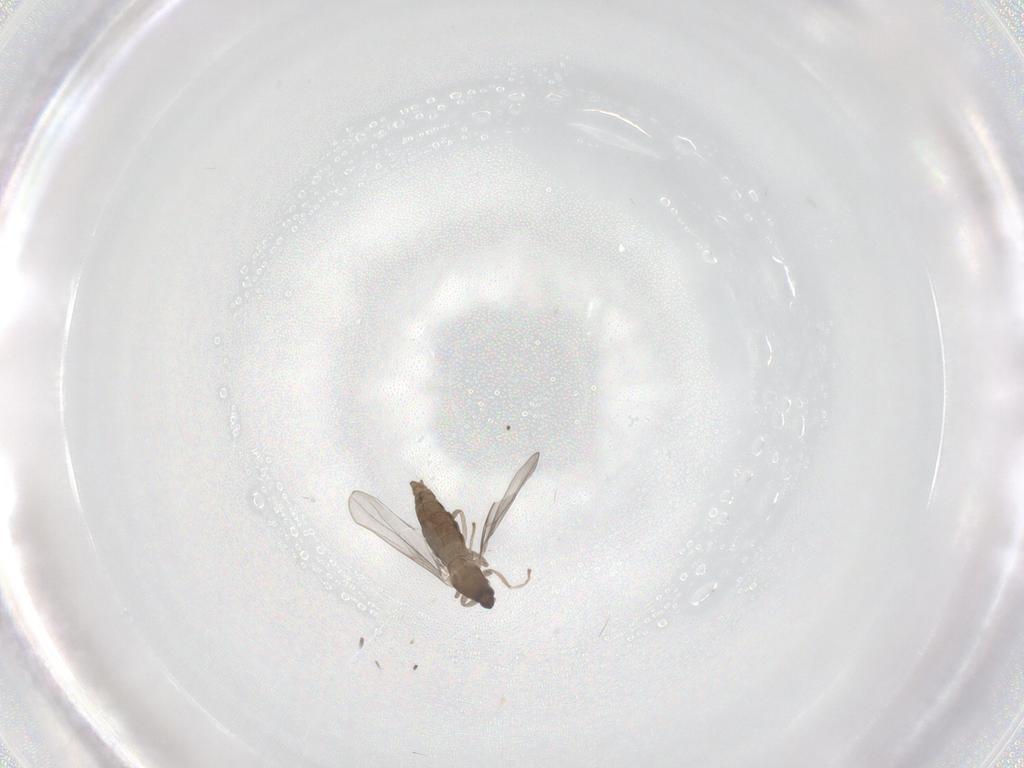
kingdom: Animalia
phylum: Arthropoda
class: Insecta
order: Diptera
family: Cecidomyiidae
